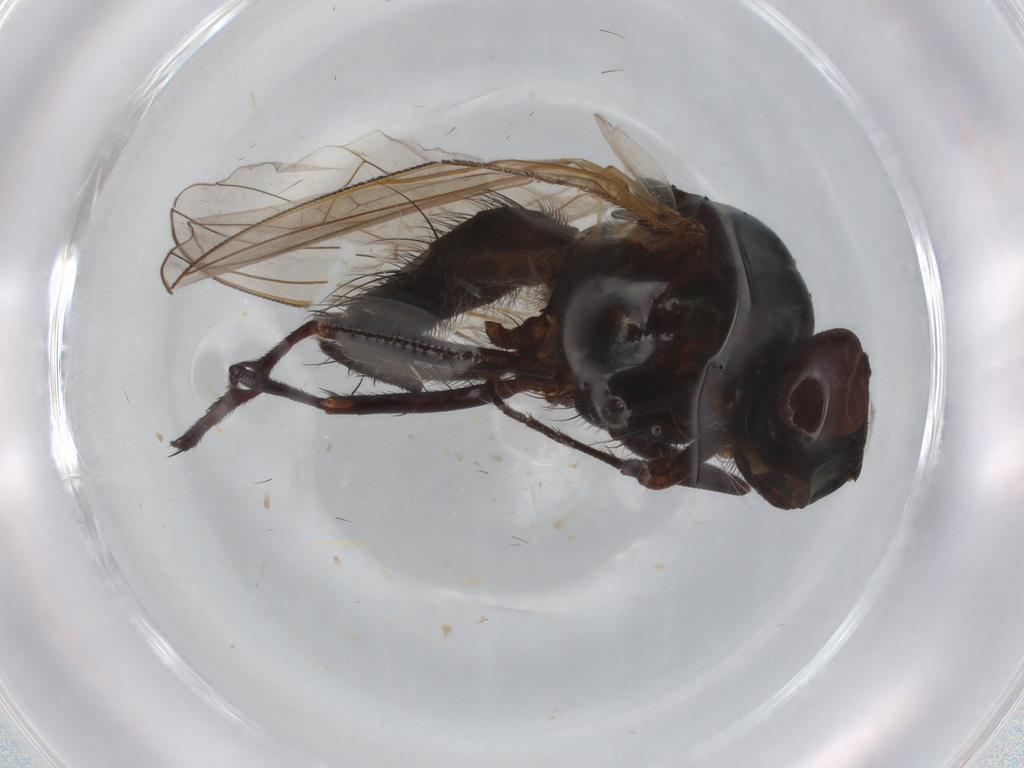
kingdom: Animalia
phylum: Arthropoda
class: Insecta
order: Diptera
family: Anthomyiidae
